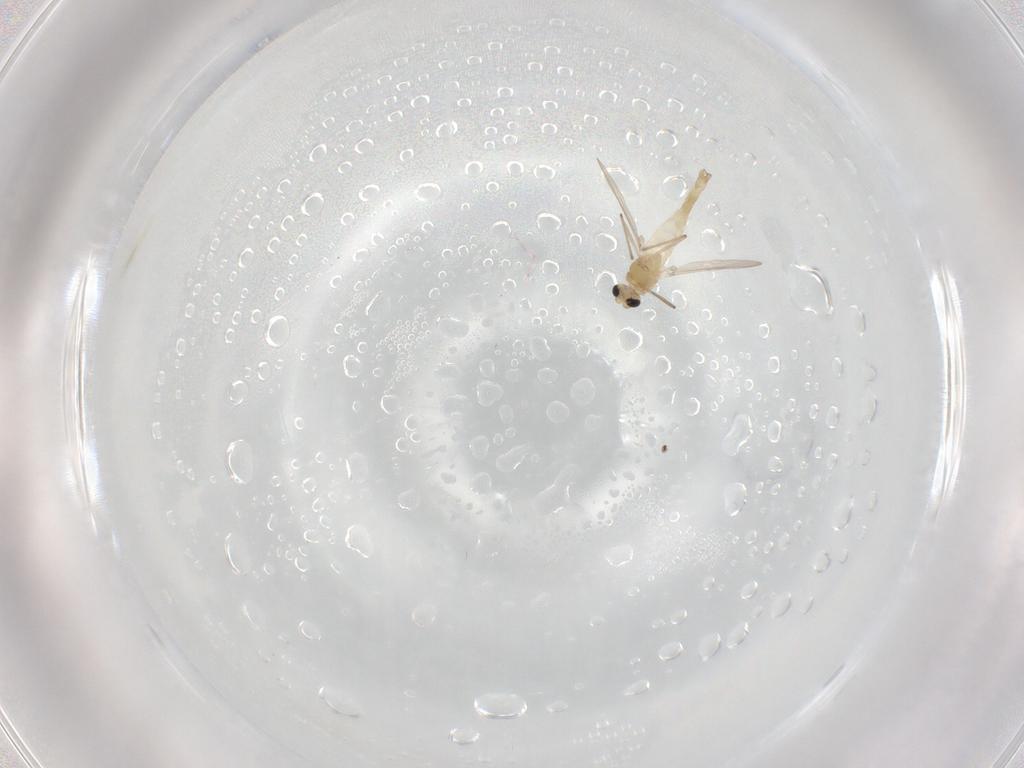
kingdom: Animalia
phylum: Arthropoda
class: Insecta
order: Diptera
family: Chironomidae
